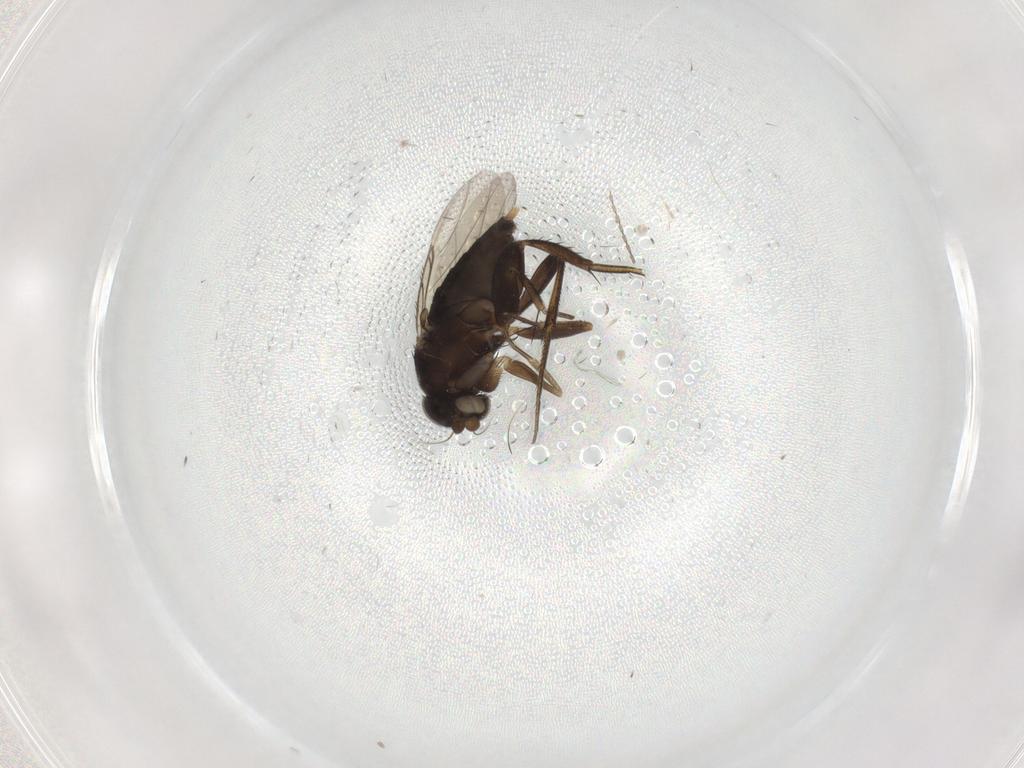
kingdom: Animalia
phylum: Arthropoda
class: Insecta
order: Diptera
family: Phoridae
